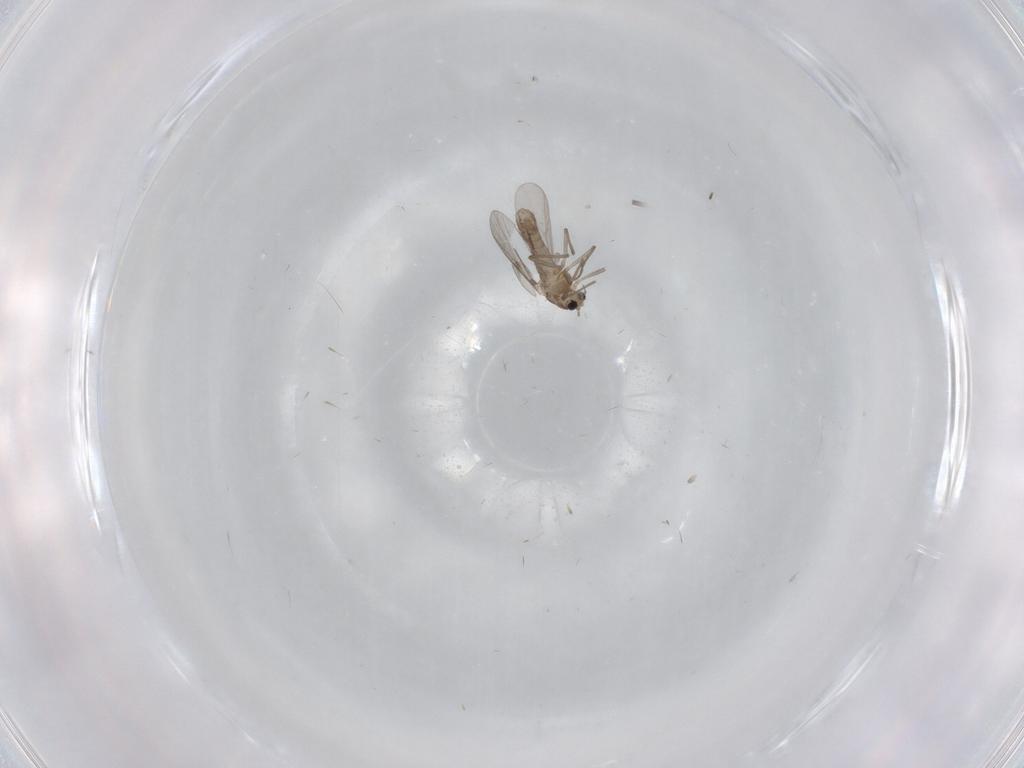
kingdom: Animalia
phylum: Arthropoda
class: Insecta
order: Diptera
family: Chironomidae
